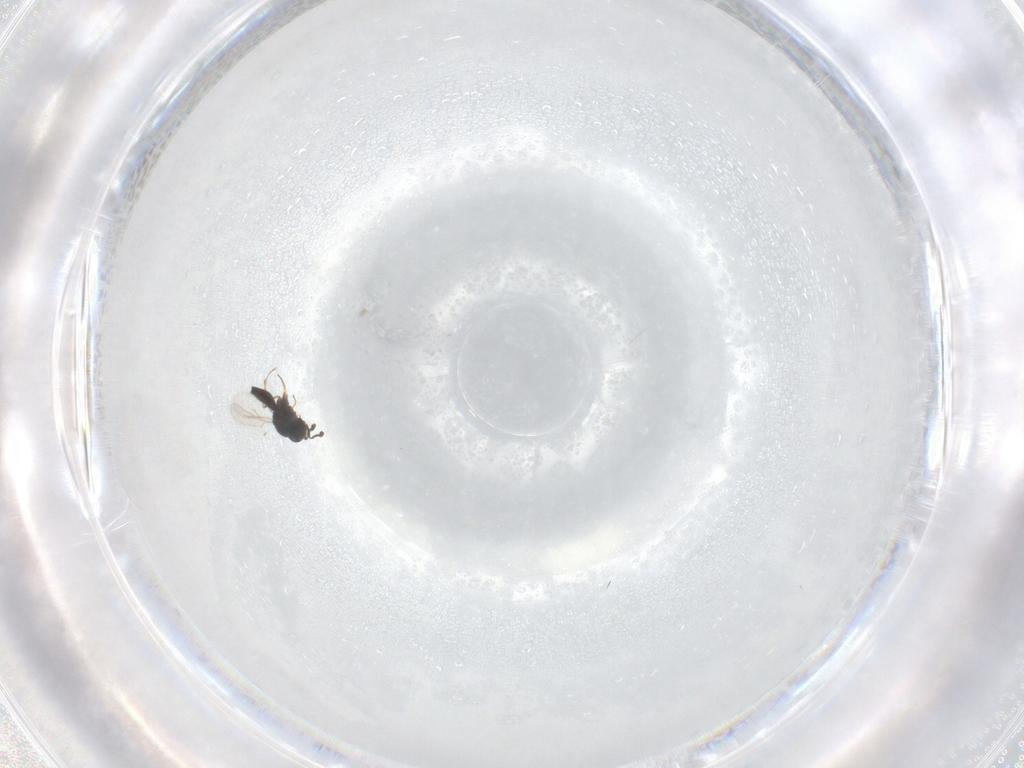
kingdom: Animalia
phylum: Arthropoda
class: Insecta
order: Hymenoptera
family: Scelionidae
